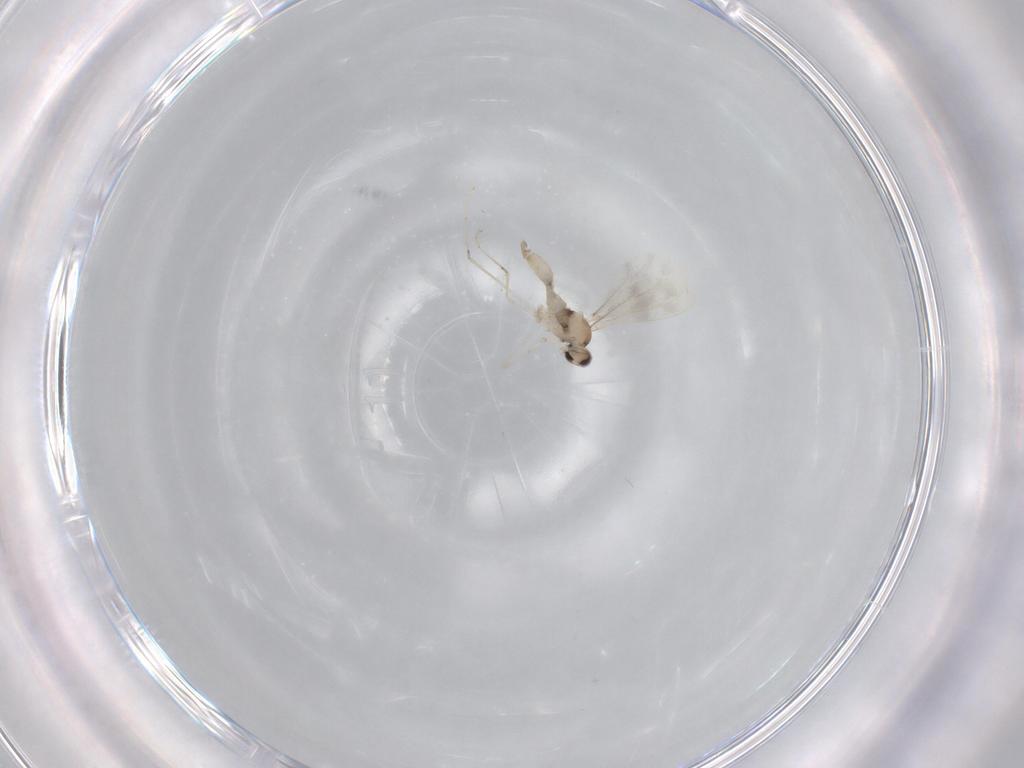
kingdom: Animalia
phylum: Arthropoda
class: Insecta
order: Diptera
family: Cecidomyiidae
